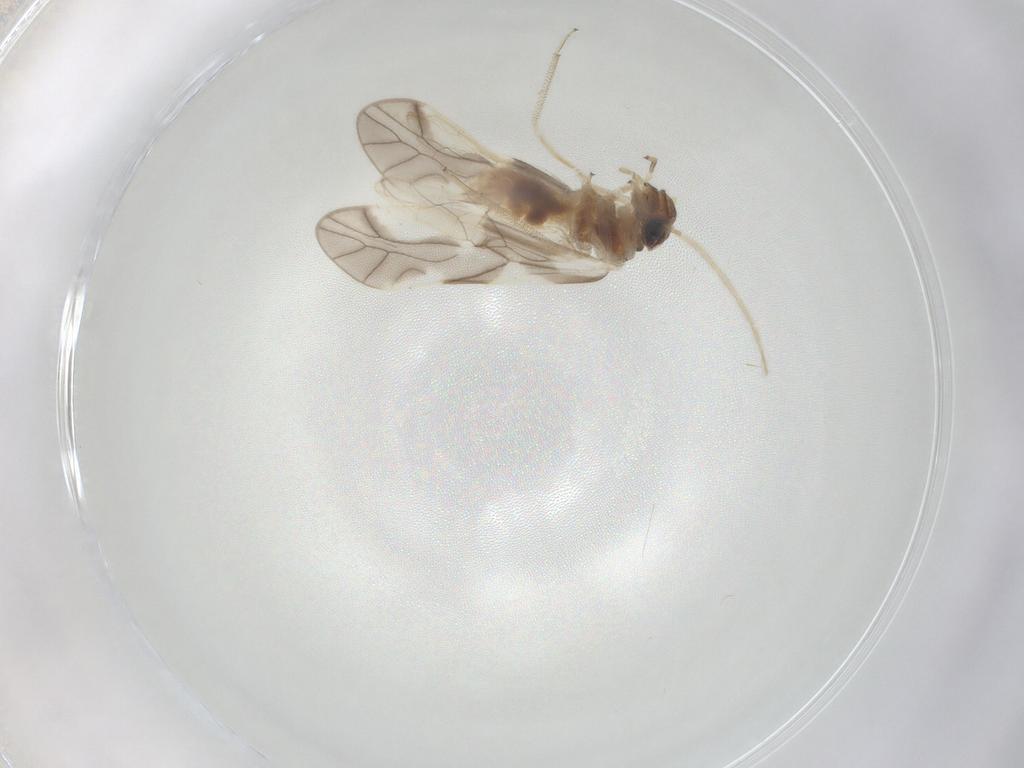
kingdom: Animalia
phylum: Arthropoda
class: Insecta
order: Psocodea
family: Caeciliusidae
